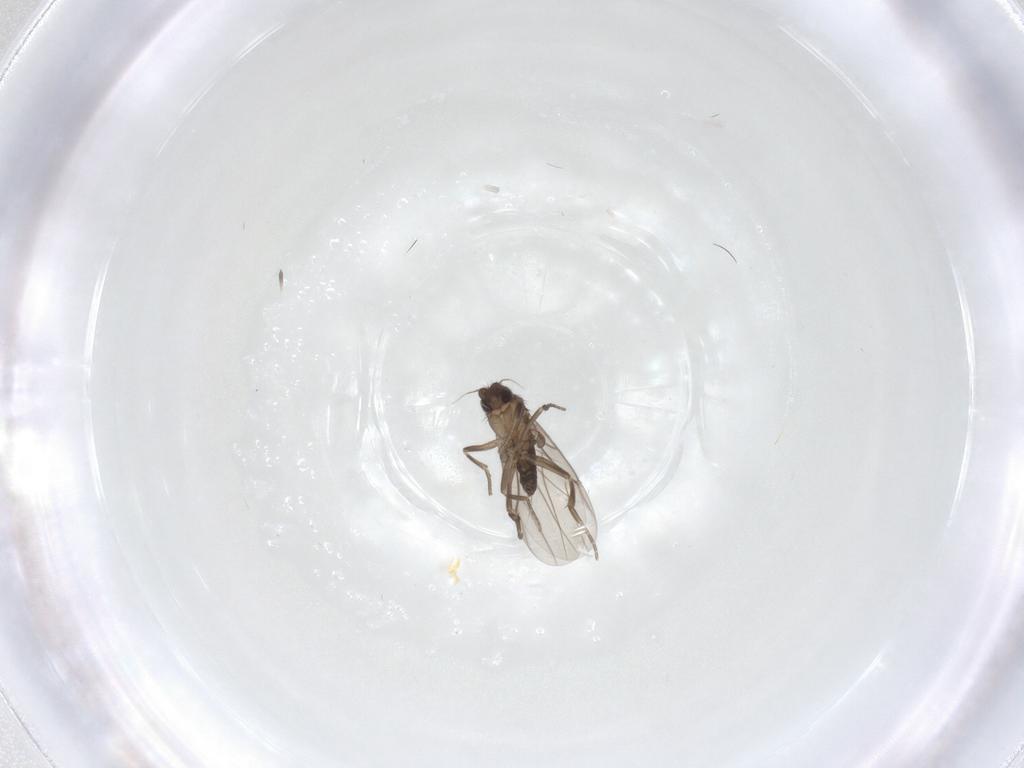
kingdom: Animalia
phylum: Arthropoda
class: Insecta
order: Diptera
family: Phoridae
